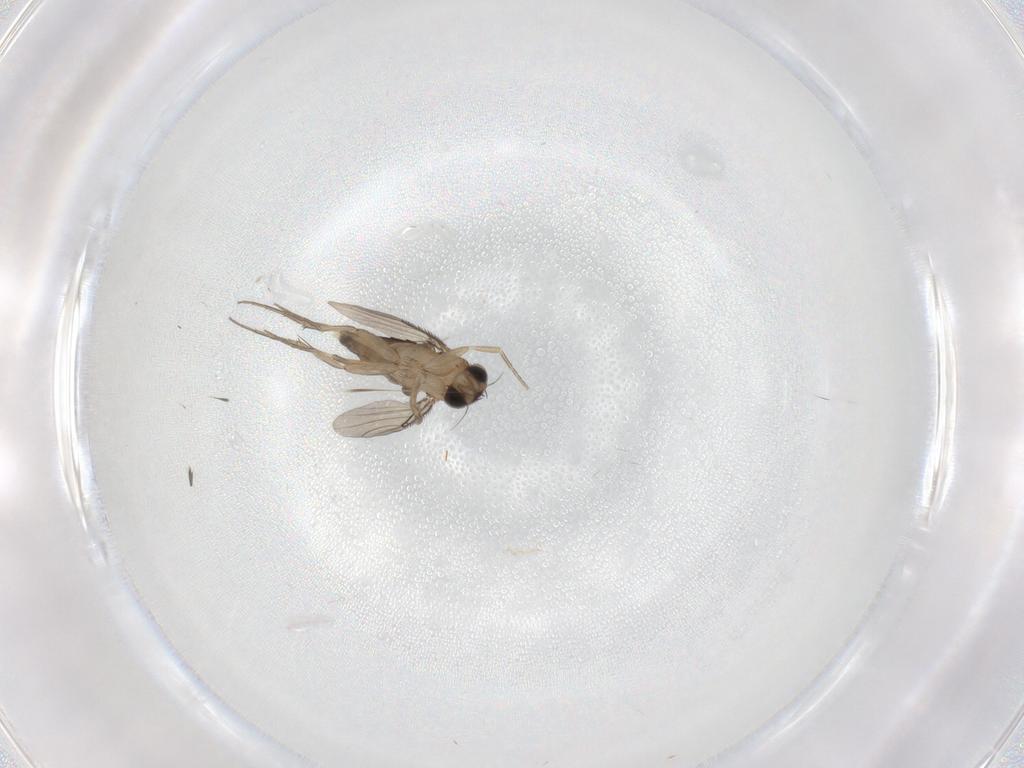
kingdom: Animalia
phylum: Arthropoda
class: Insecta
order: Diptera
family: Phoridae
